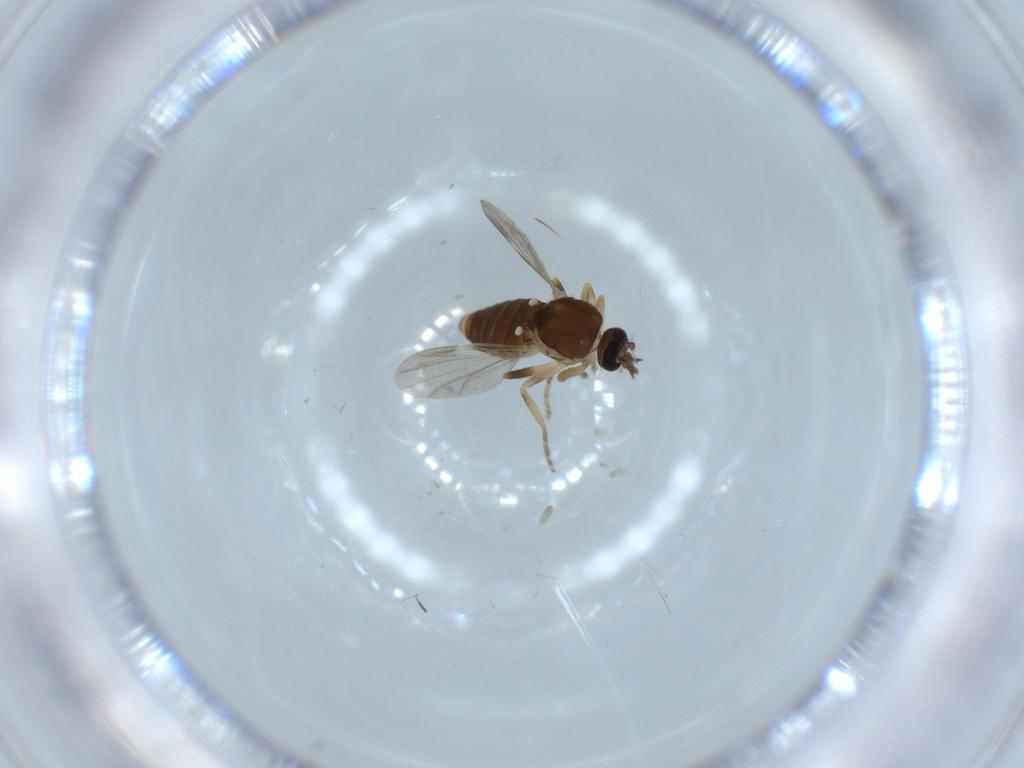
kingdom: Animalia
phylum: Arthropoda
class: Insecta
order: Diptera
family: Ceratopogonidae
